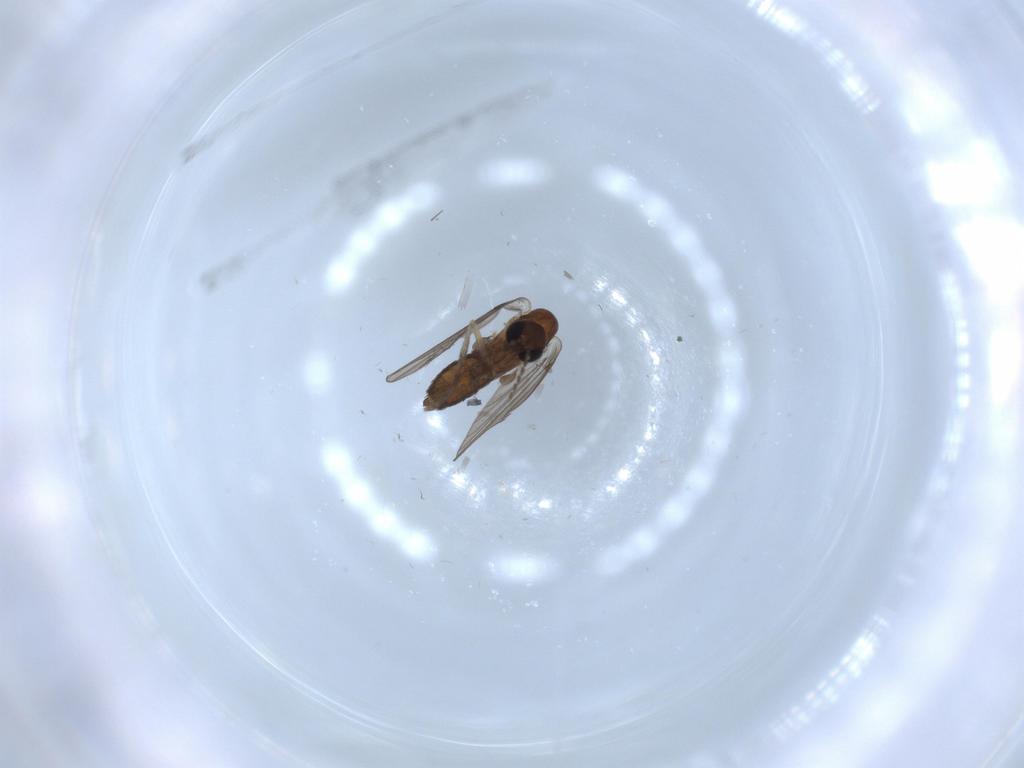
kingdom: Animalia
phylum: Arthropoda
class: Insecta
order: Diptera
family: Psychodidae
